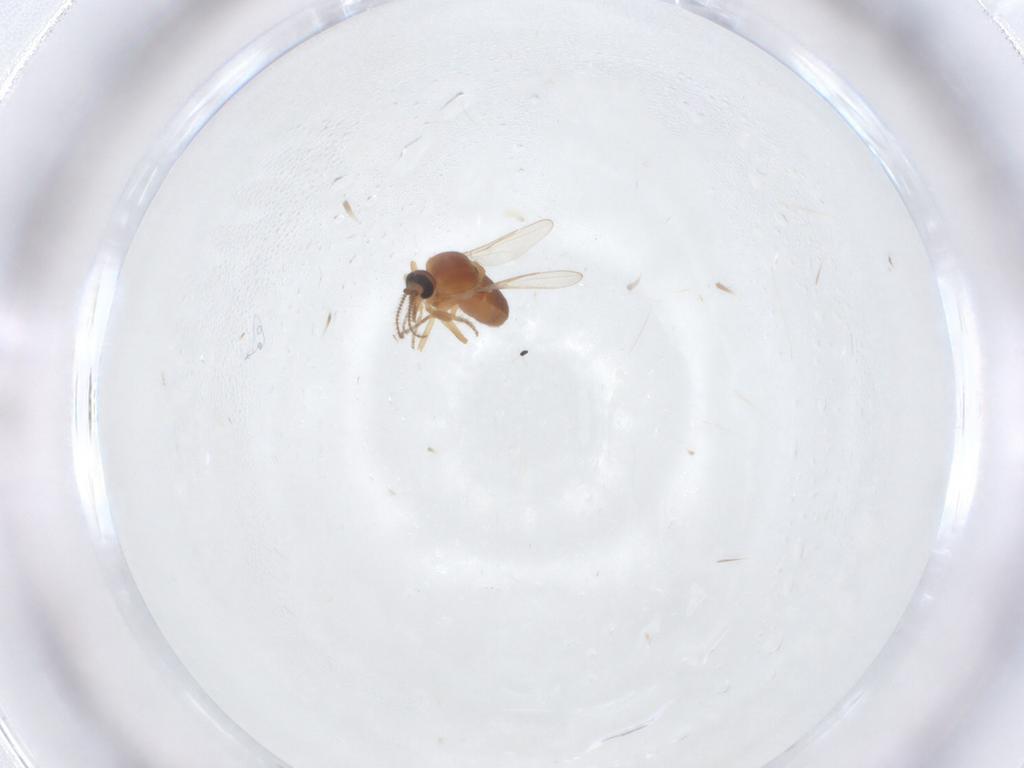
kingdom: Animalia
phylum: Arthropoda
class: Insecta
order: Diptera
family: Ceratopogonidae
